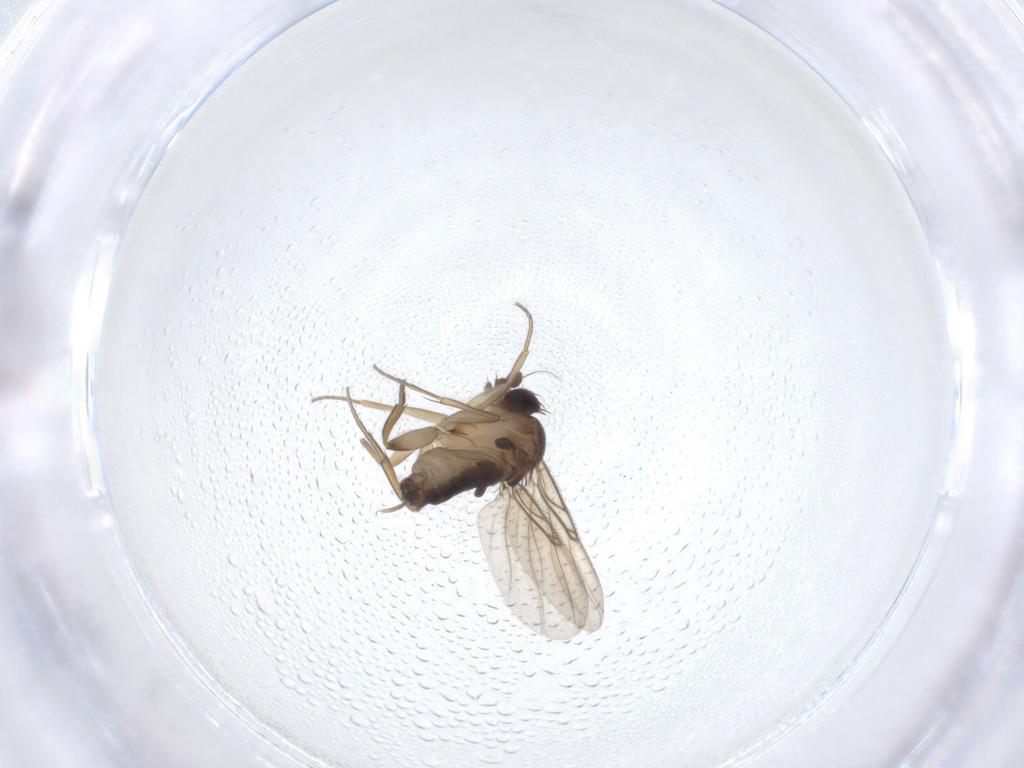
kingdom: Animalia
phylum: Arthropoda
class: Insecta
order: Diptera
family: Phoridae
